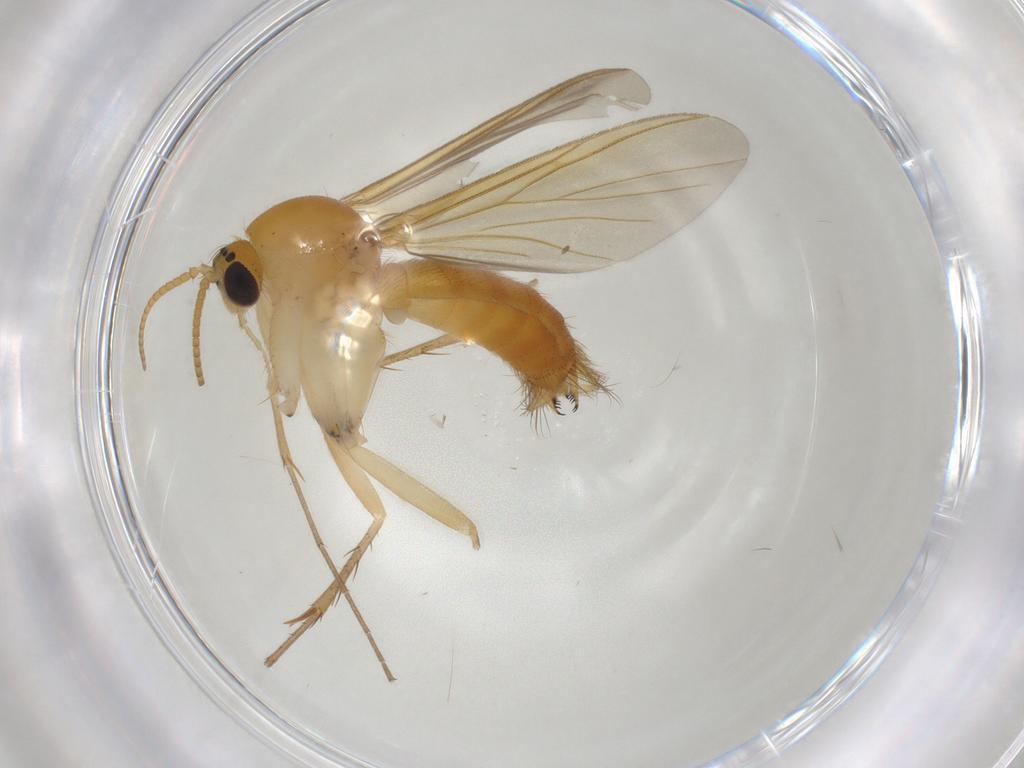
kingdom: Animalia
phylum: Arthropoda
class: Insecta
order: Diptera
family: Mycetophilidae
